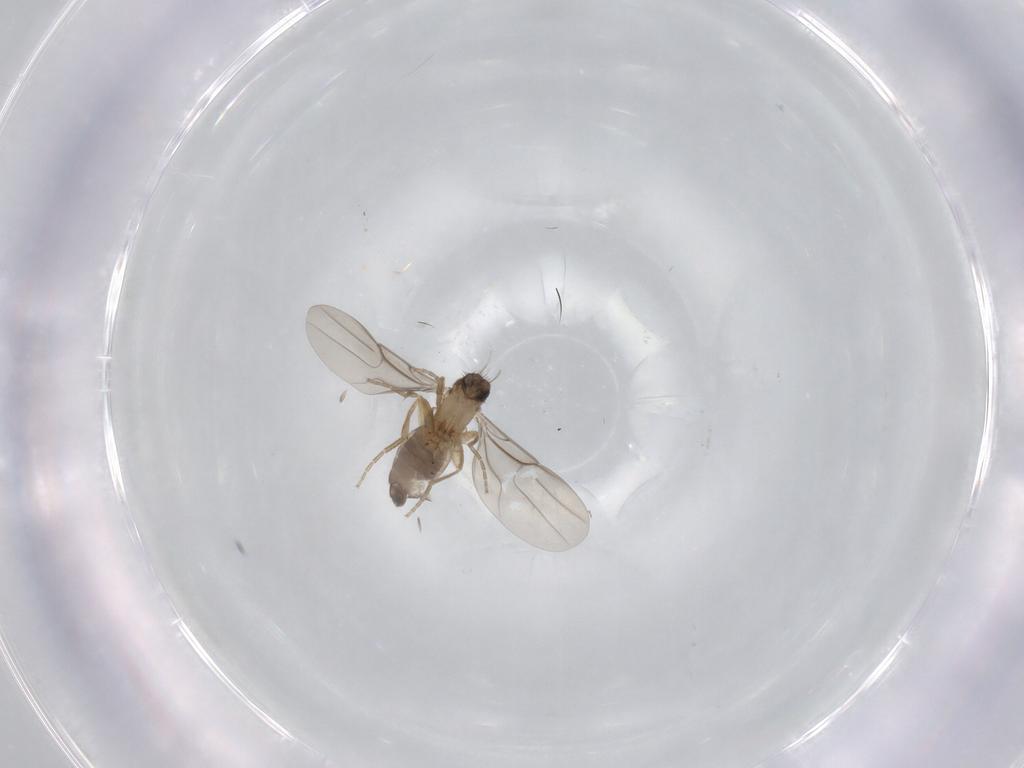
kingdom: Animalia
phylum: Arthropoda
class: Insecta
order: Diptera
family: Phoridae
